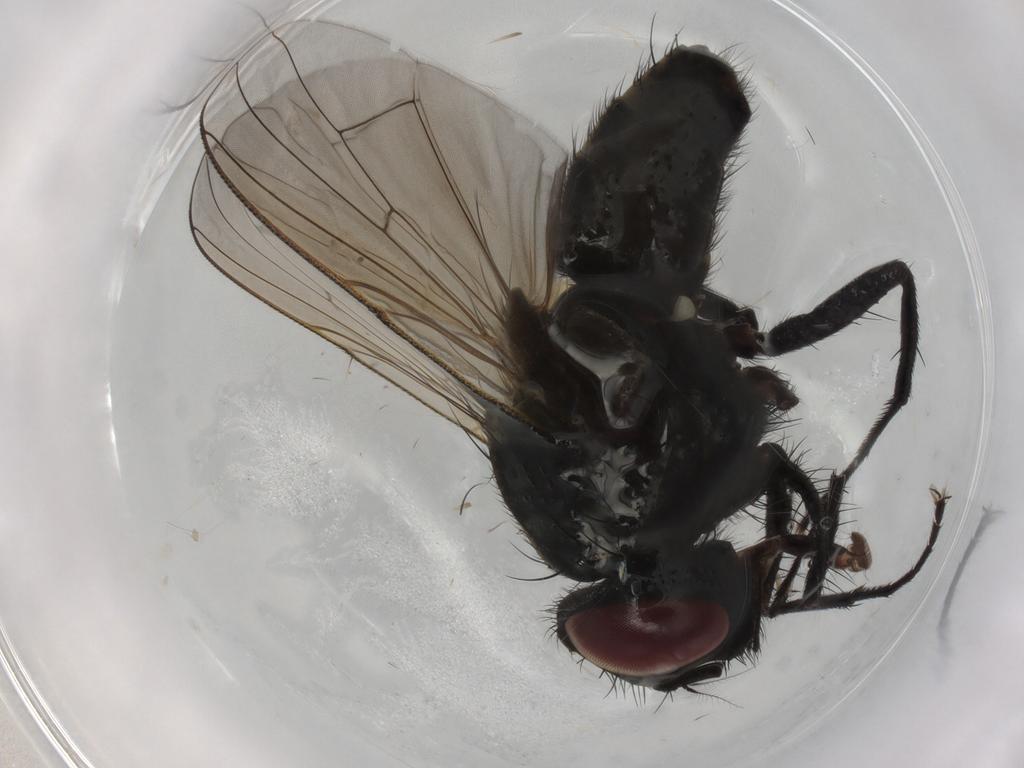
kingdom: Animalia
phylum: Arthropoda
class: Insecta
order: Diptera
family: Muscidae
